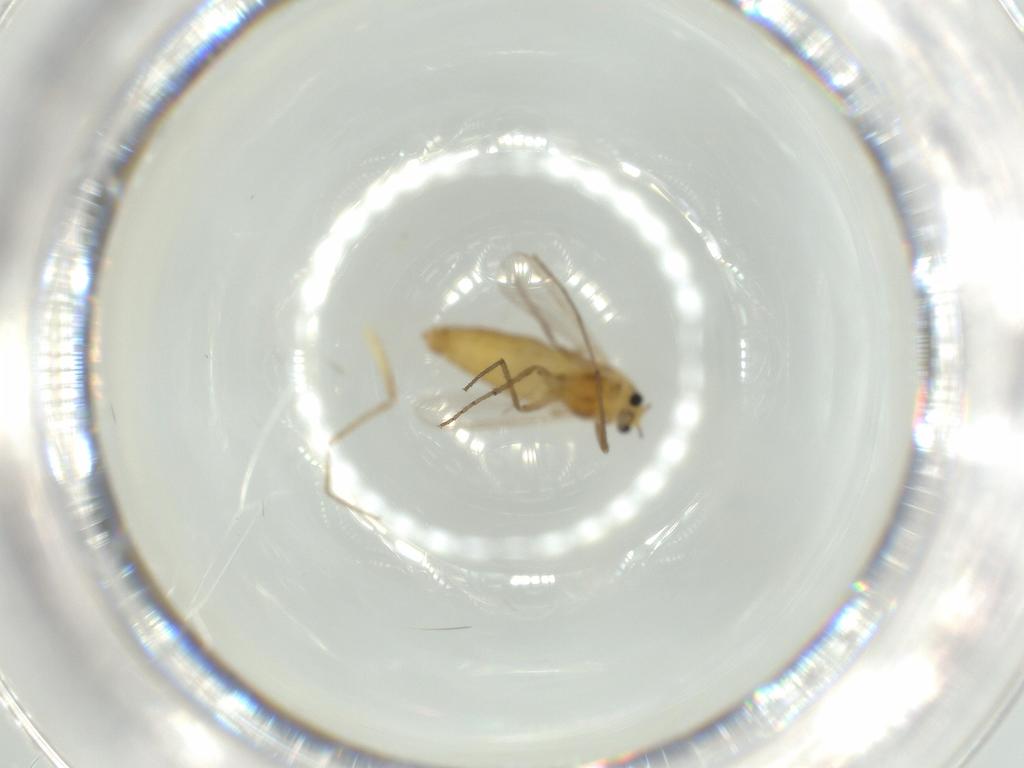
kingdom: Animalia
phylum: Arthropoda
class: Insecta
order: Diptera
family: Chironomidae
